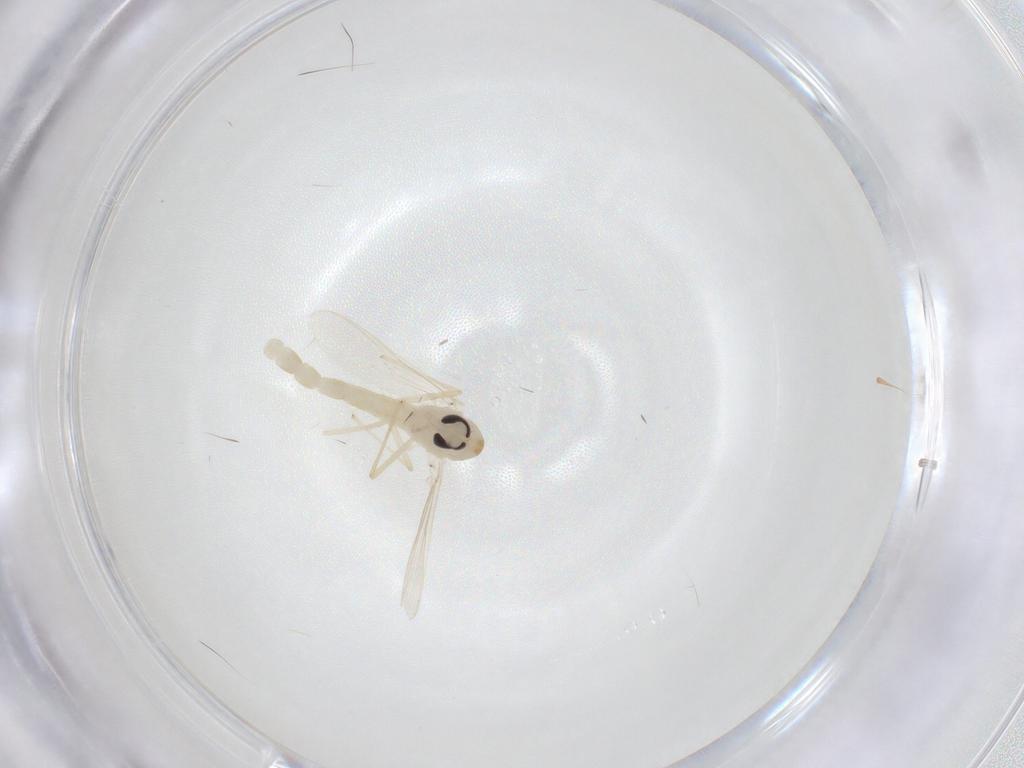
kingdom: Animalia
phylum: Arthropoda
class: Insecta
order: Diptera
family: Chironomidae
